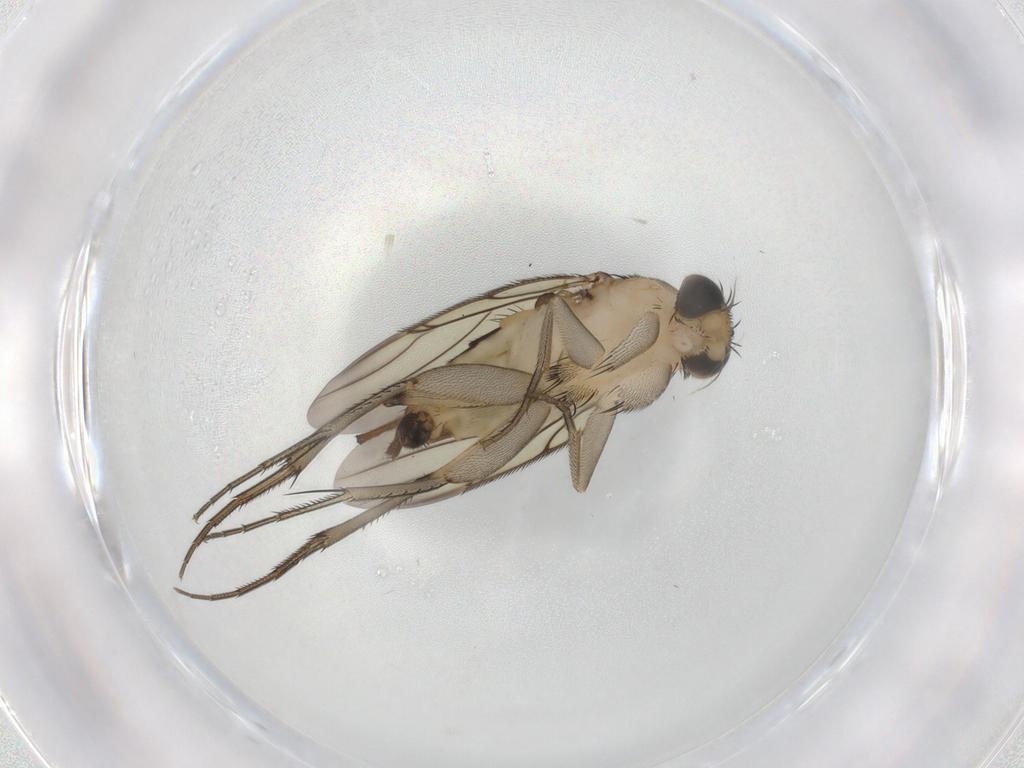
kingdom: Animalia
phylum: Arthropoda
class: Insecta
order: Diptera
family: Phoridae
